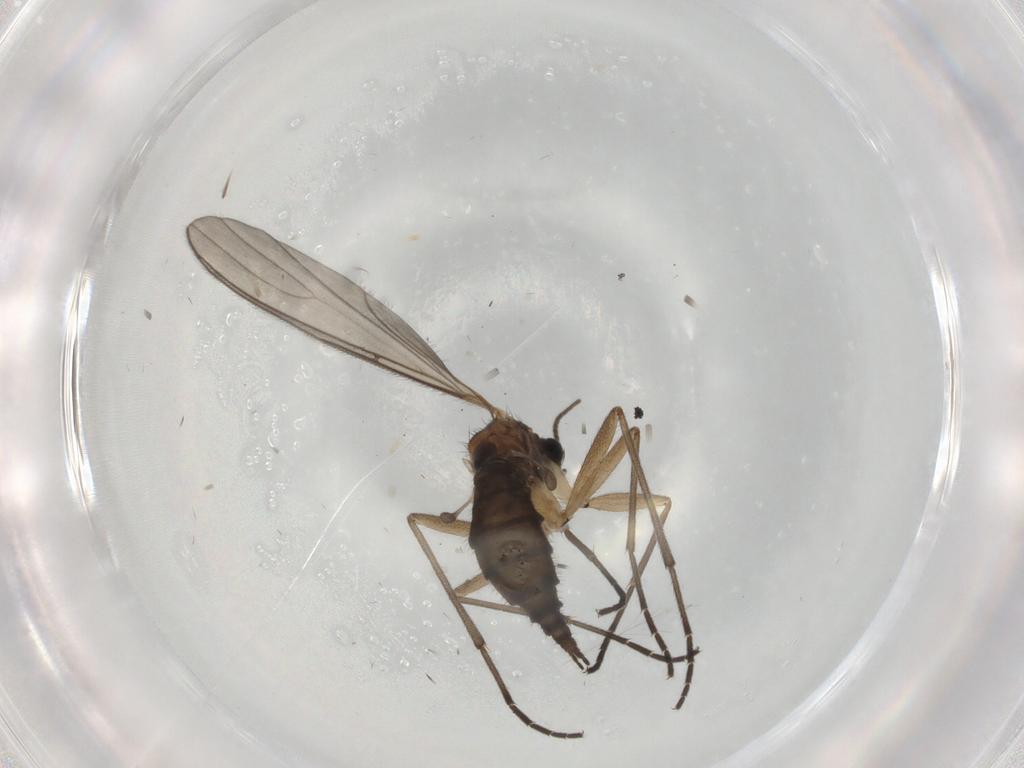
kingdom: Animalia
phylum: Arthropoda
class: Insecta
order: Diptera
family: Sciaridae
